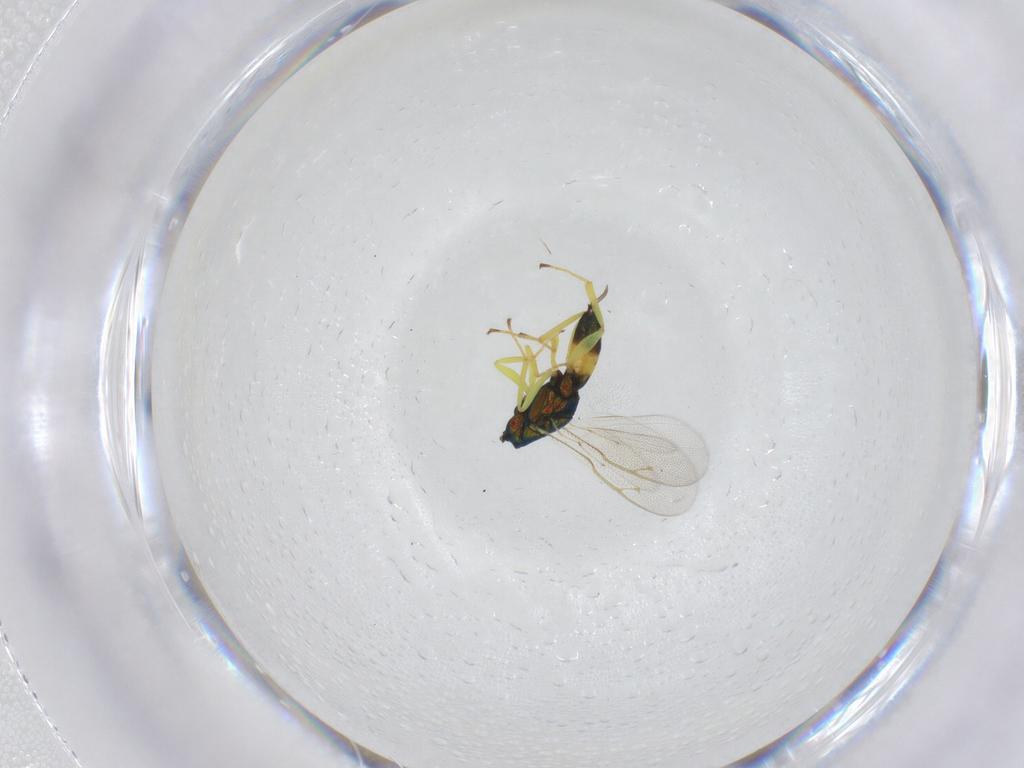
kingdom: Animalia
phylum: Arthropoda
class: Insecta
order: Hymenoptera
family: Pteromalidae
